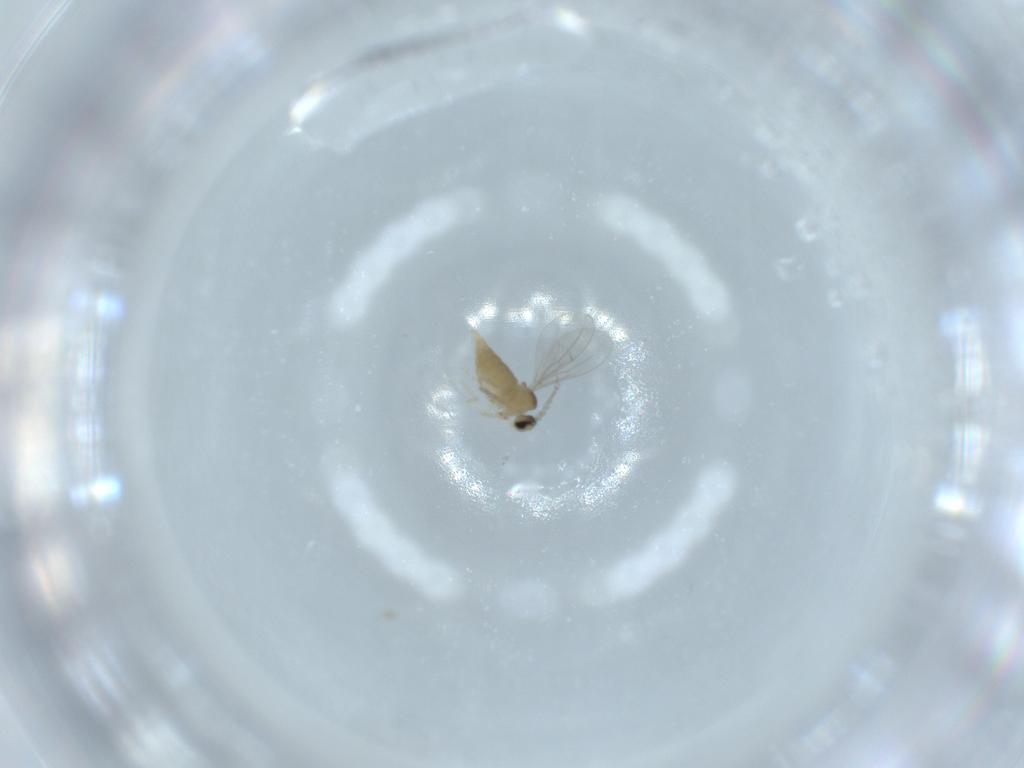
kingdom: Animalia
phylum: Arthropoda
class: Insecta
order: Diptera
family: Cecidomyiidae
